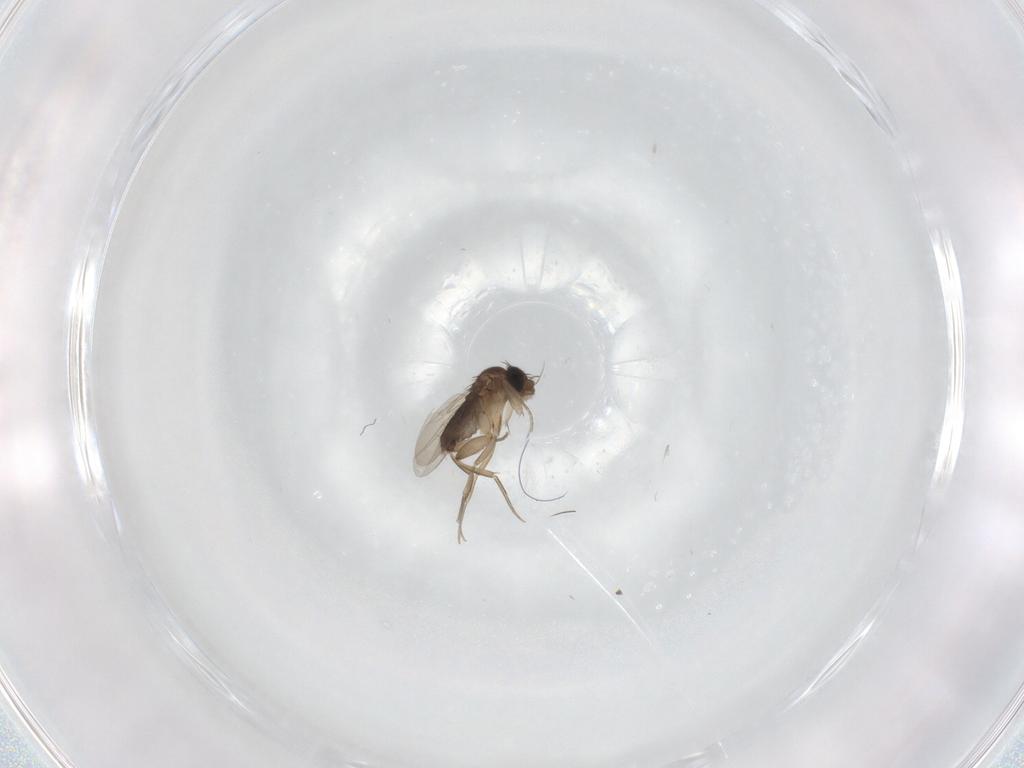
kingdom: Animalia
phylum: Arthropoda
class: Insecta
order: Diptera
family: Phoridae
